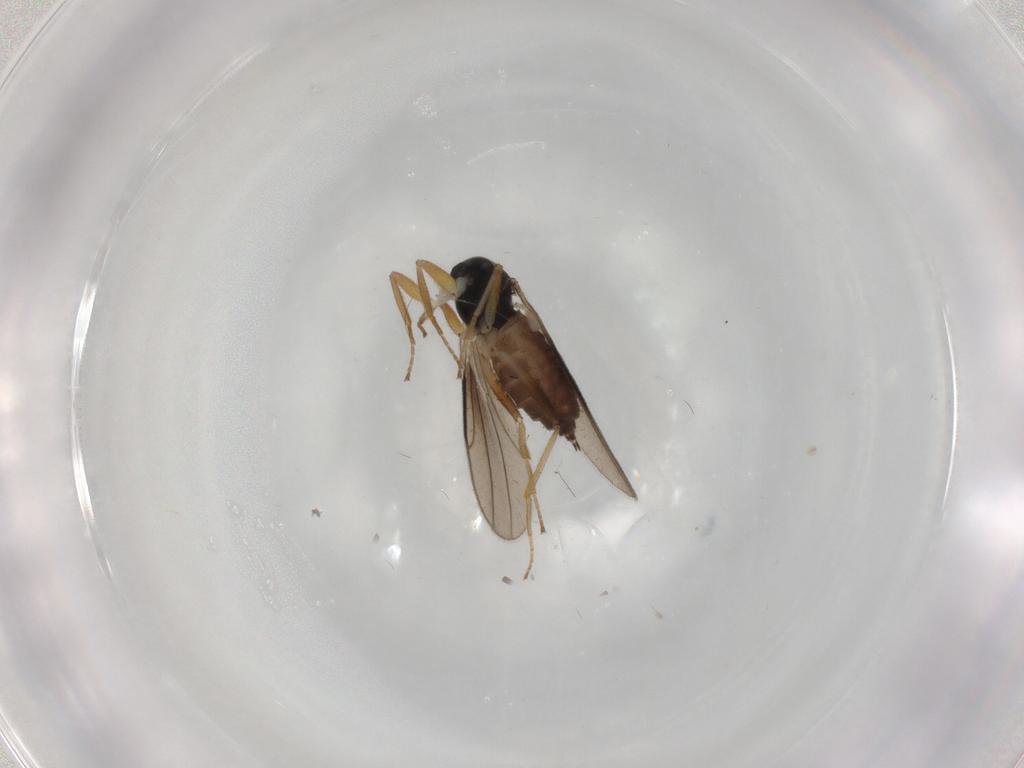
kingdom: Animalia
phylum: Arthropoda
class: Insecta
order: Diptera
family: Hybotidae
